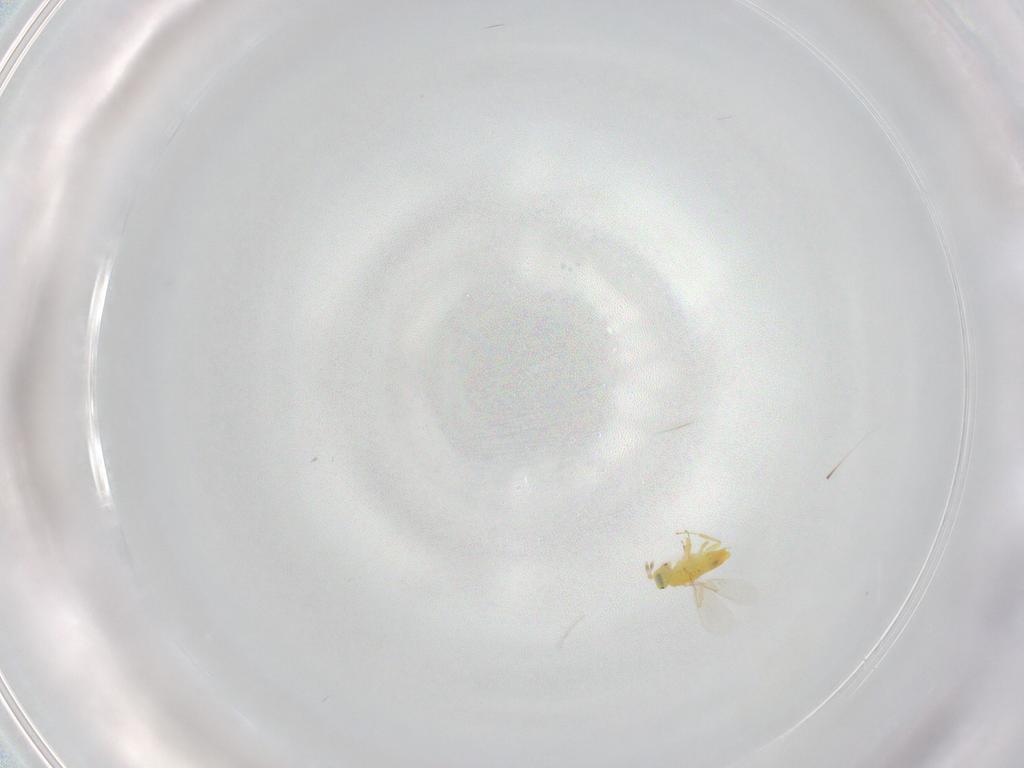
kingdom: Animalia
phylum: Arthropoda
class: Insecta
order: Hymenoptera
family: Aphelinidae
